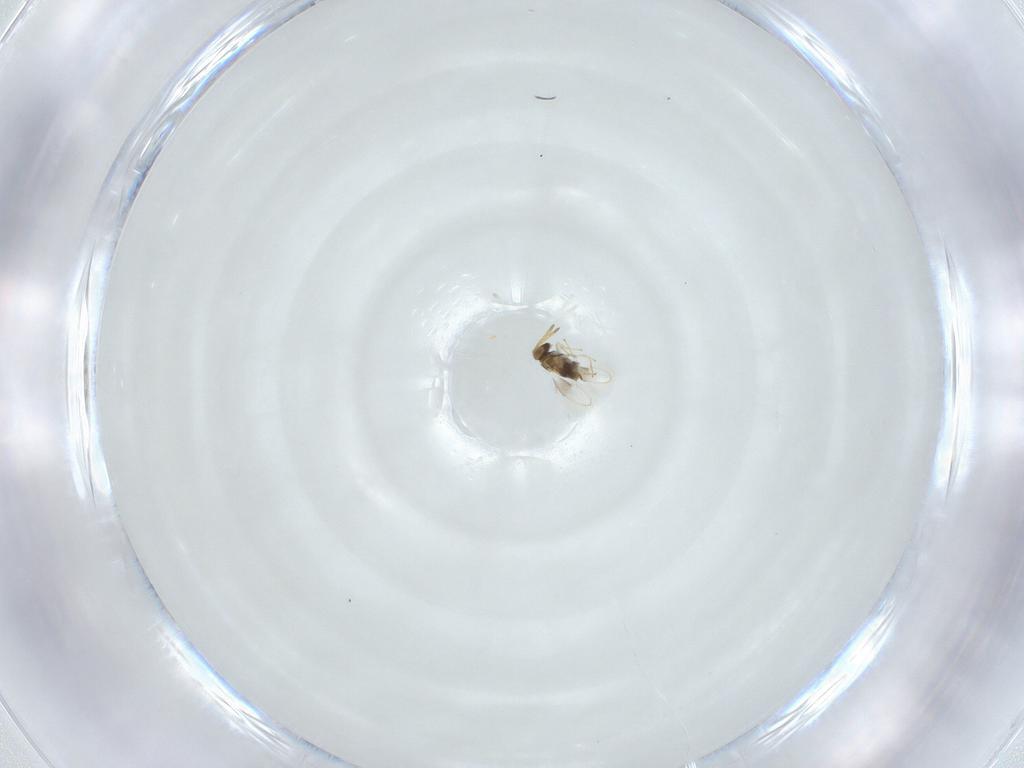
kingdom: Animalia
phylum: Arthropoda
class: Insecta
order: Hymenoptera
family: Aphelinidae
